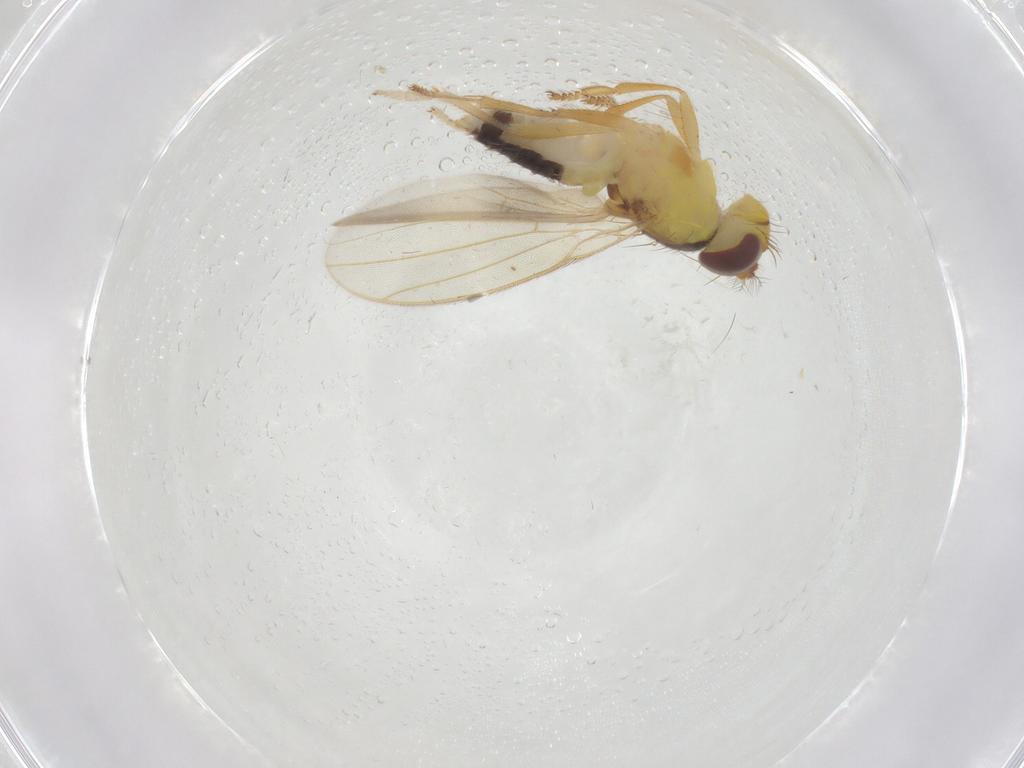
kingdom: Animalia
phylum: Arthropoda
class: Insecta
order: Diptera
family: Periscelididae
